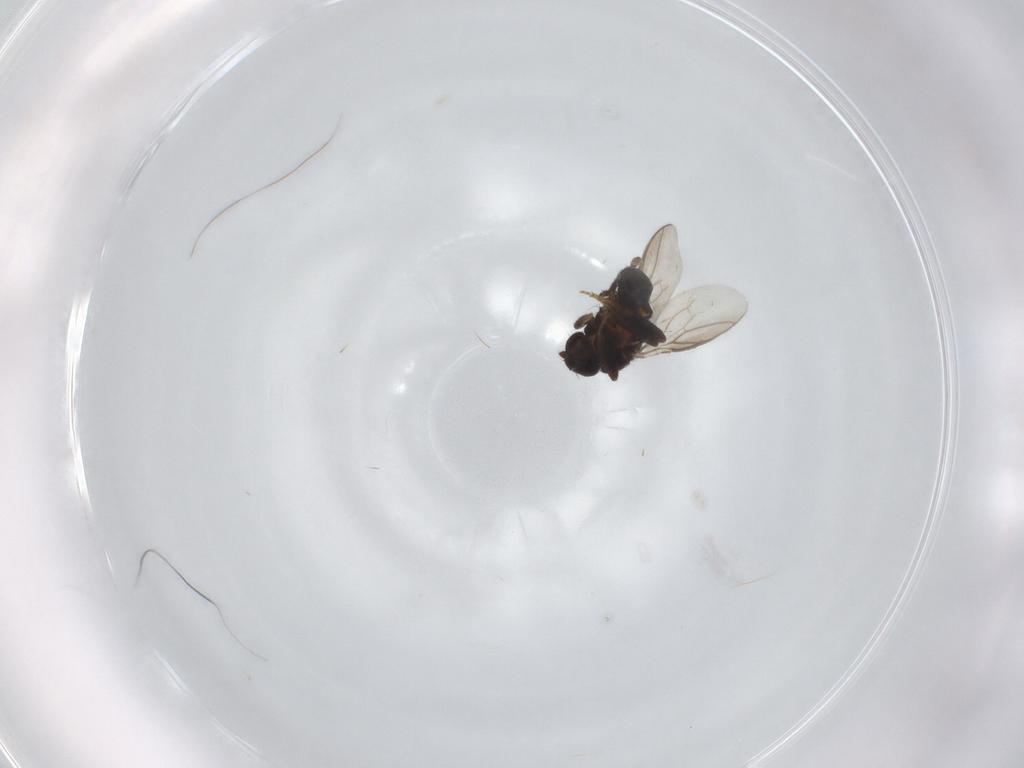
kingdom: Animalia
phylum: Arthropoda
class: Insecta
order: Diptera
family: Sphaeroceridae
